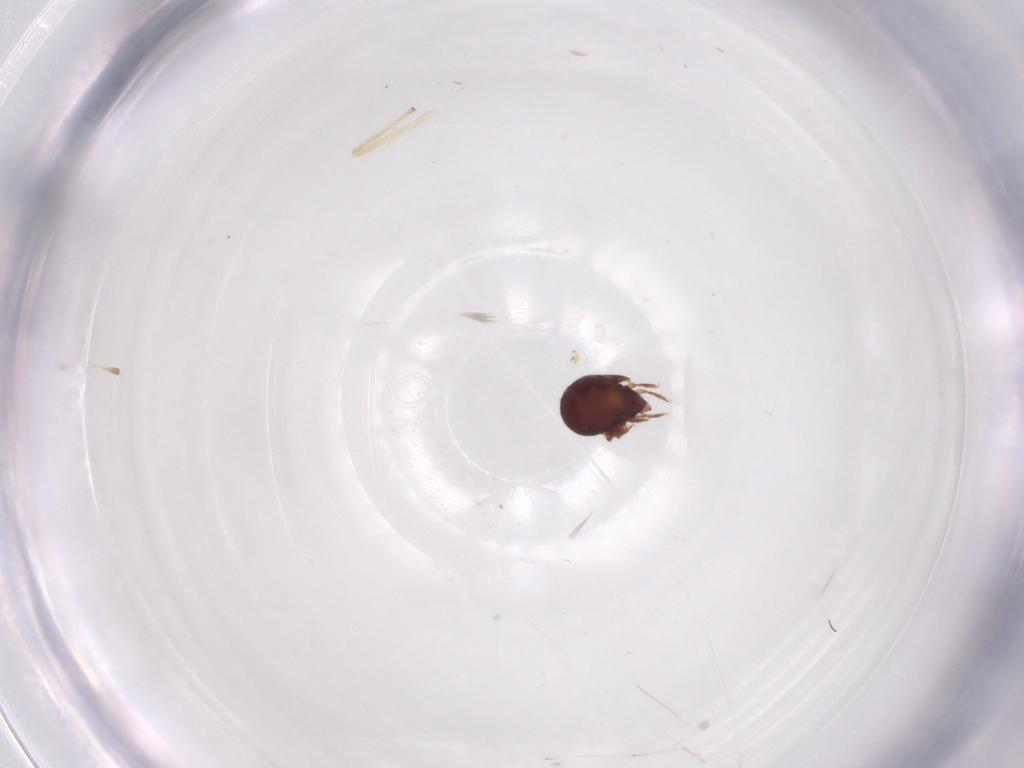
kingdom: Animalia
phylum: Arthropoda
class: Arachnida
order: Sarcoptiformes
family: Humerobatidae
